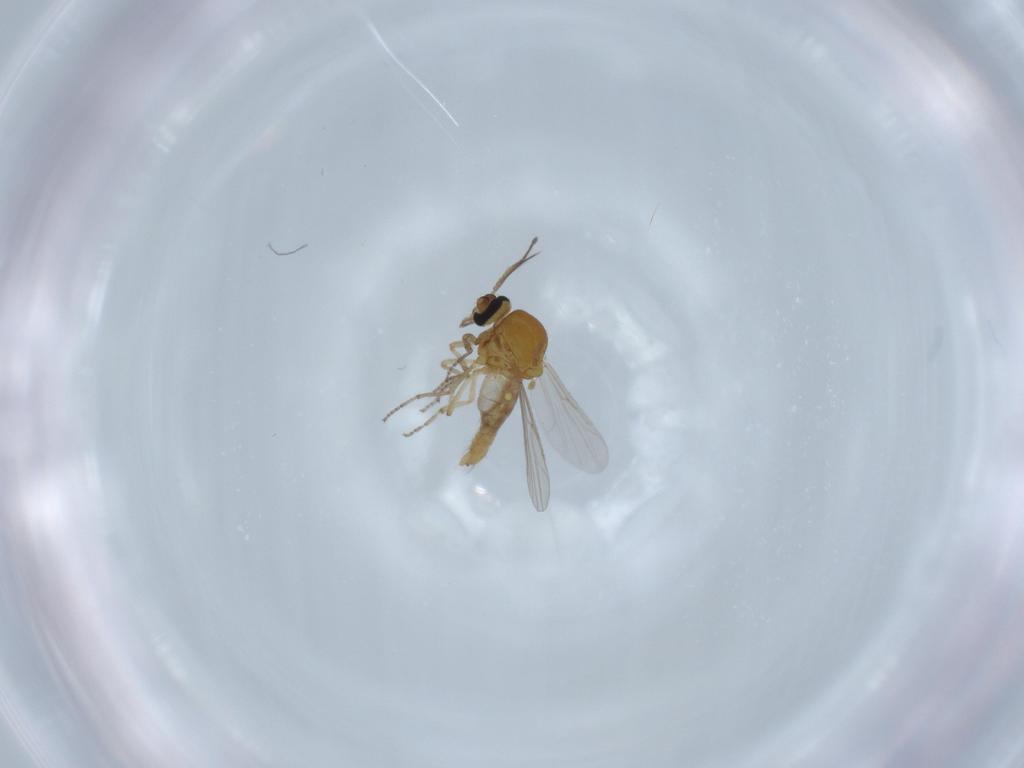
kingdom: Animalia
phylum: Arthropoda
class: Insecta
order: Diptera
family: Ceratopogonidae
